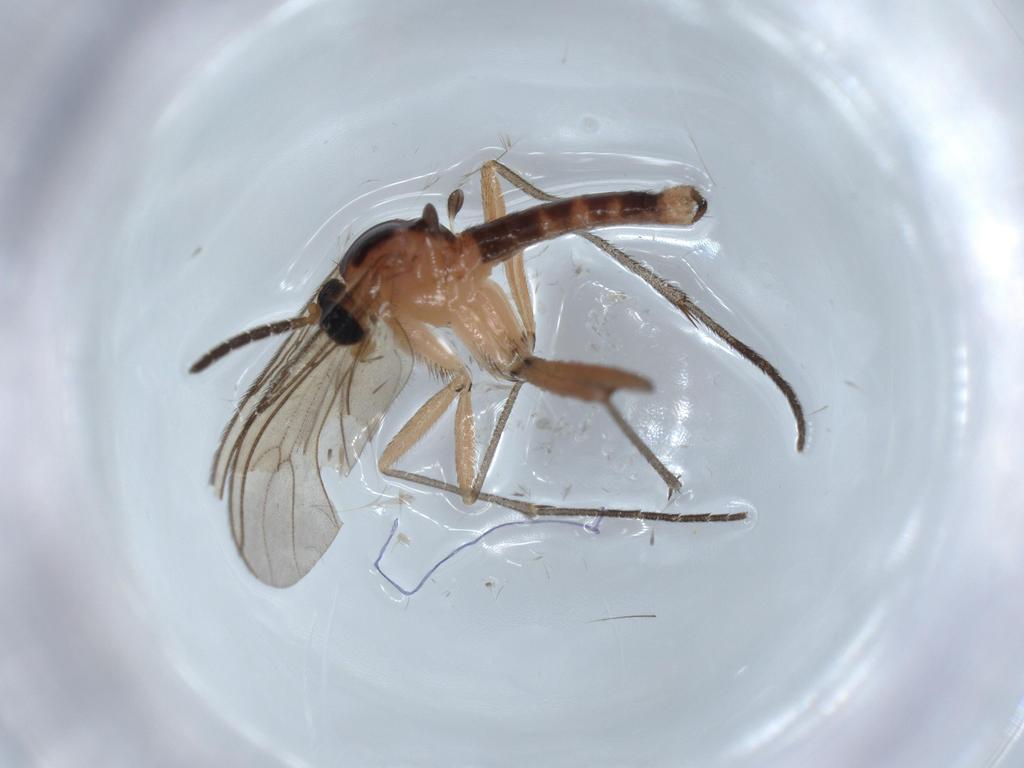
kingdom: Animalia
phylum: Arthropoda
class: Insecta
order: Diptera
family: Sciaridae
